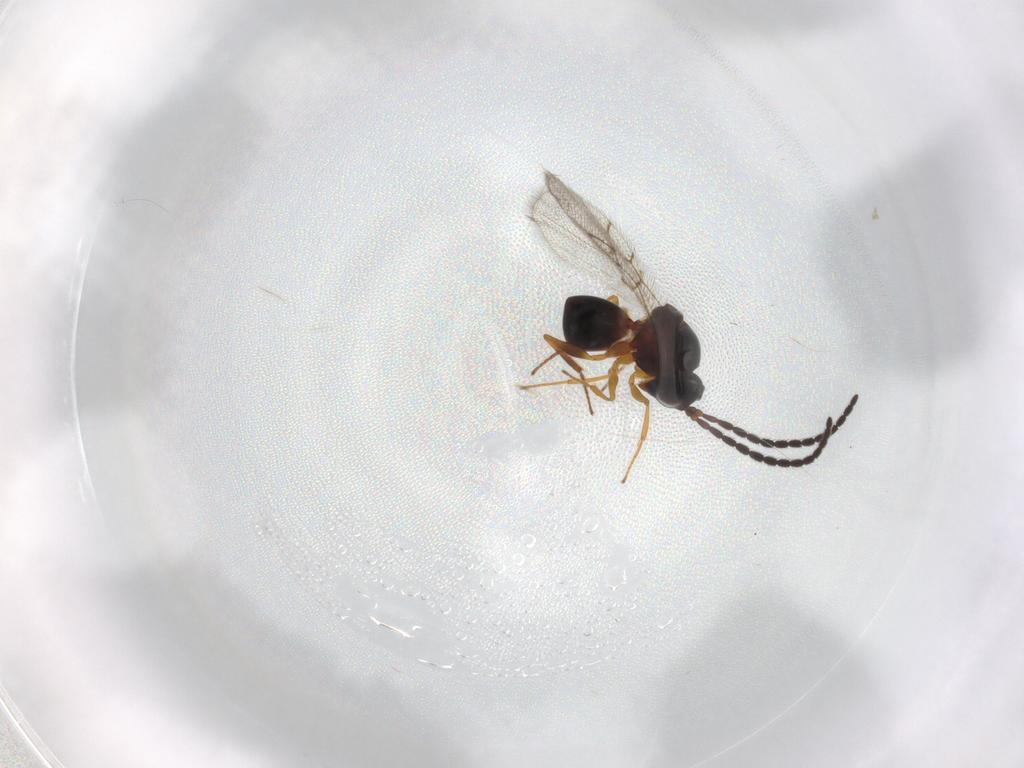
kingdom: Animalia
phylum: Arthropoda
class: Insecta
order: Hymenoptera
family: Figitidae
